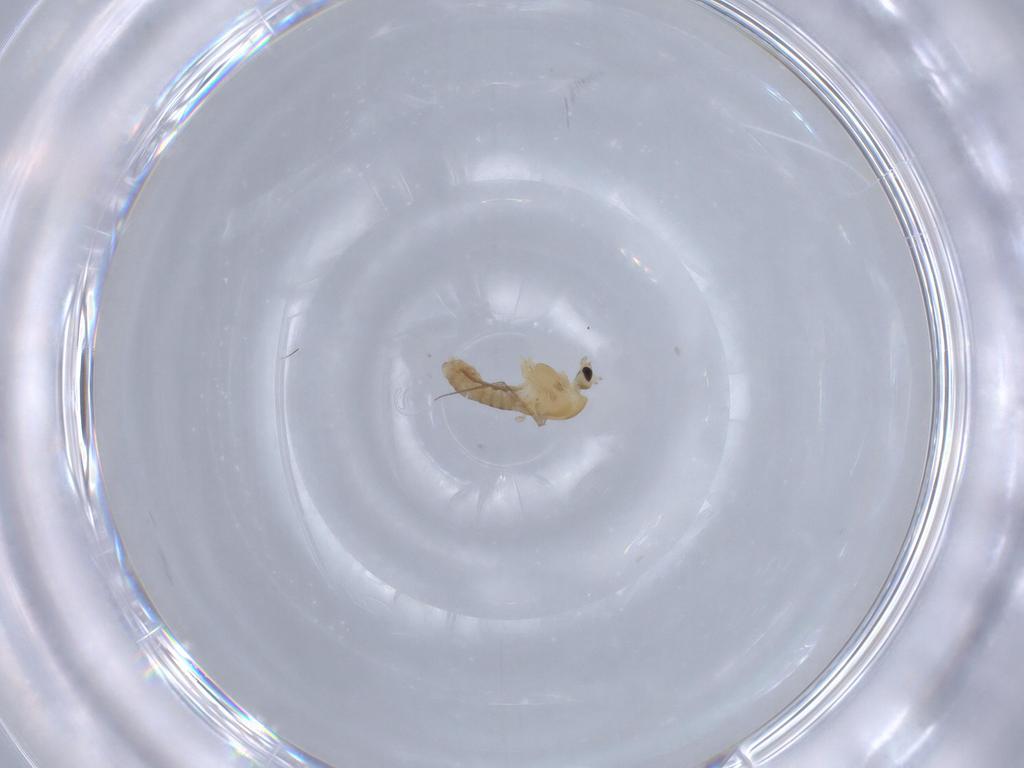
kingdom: Animalia
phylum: Arthropoda
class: Insecta
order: Diptera
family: Chironomidae
